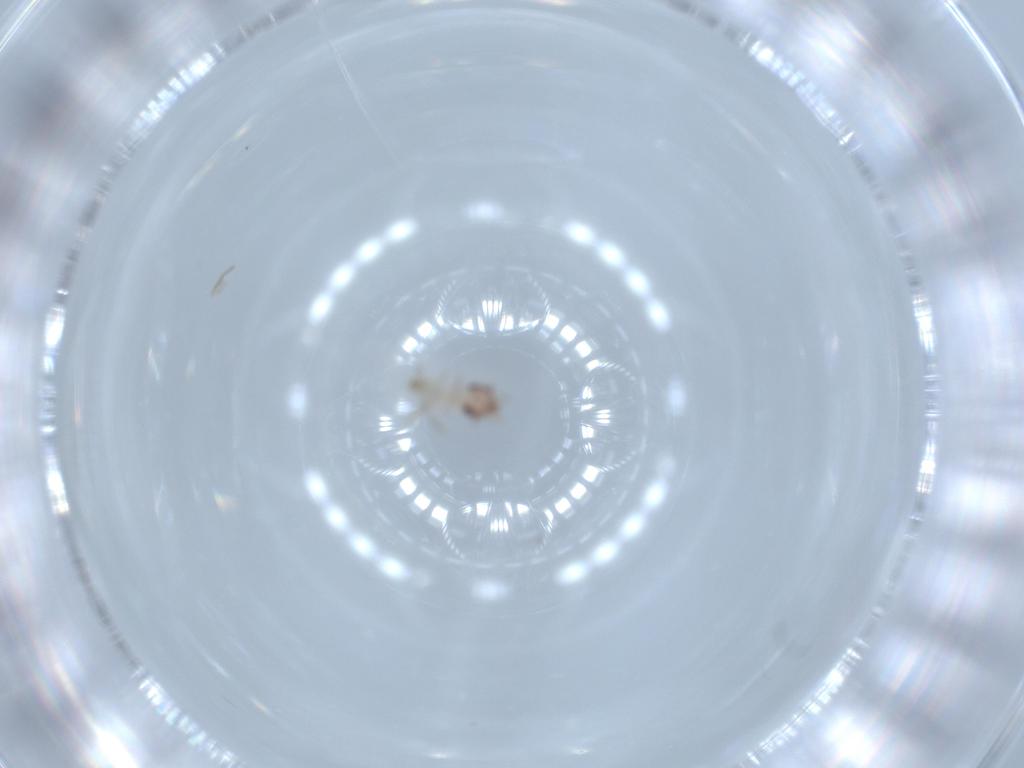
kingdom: Animalia
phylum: Arthropoda
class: Insecta
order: Psocodea
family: Lepidopsocidae
